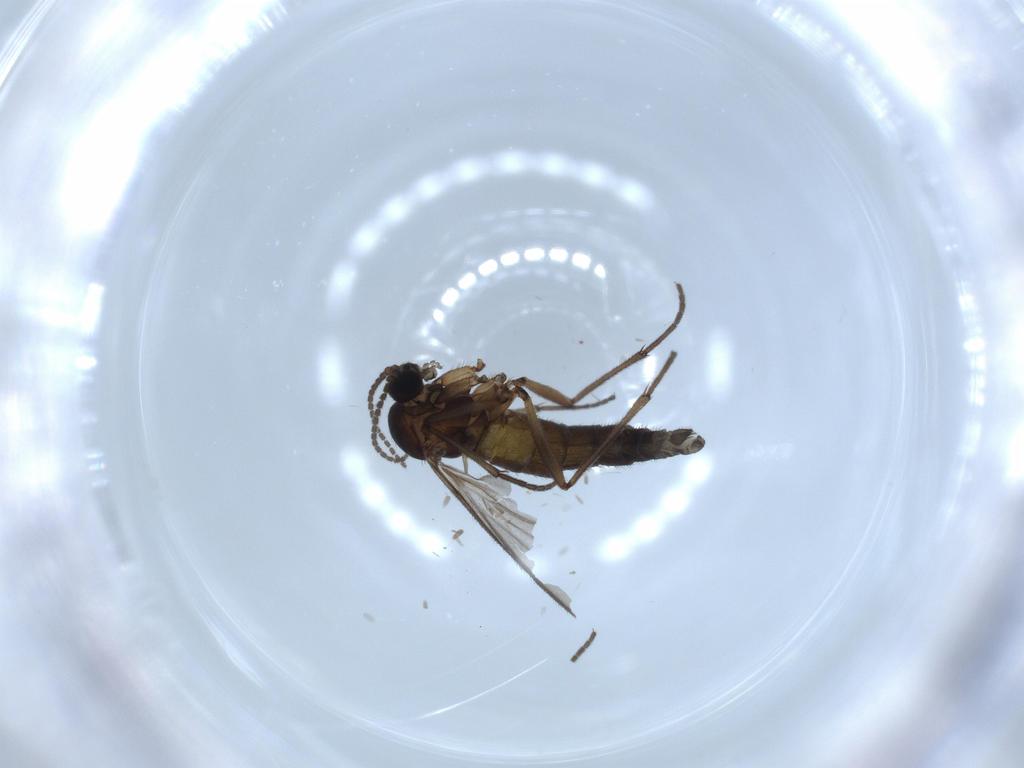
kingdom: Animalia
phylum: Arthropoda
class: Insecta
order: Diptera
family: Sciaridae
